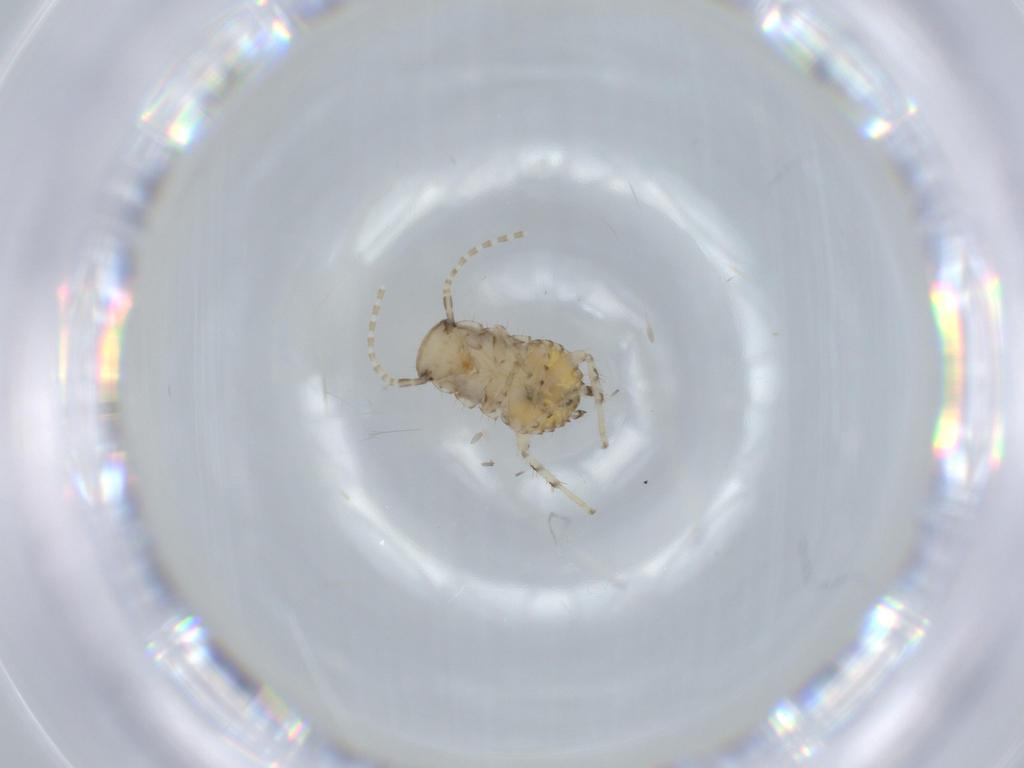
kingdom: Animalia
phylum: Arthropoda
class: Insecta
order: Blattodea
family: Ectobiidae
